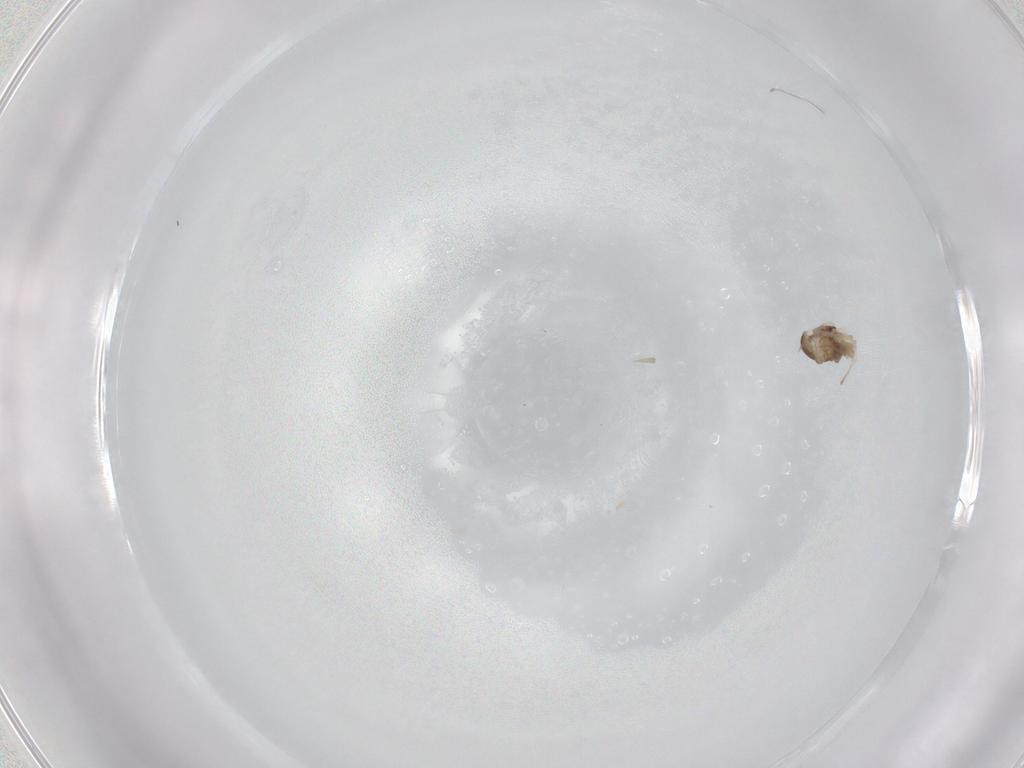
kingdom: Animalia
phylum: Arthropoda
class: Insecta
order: Diptera
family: Cecidomyiidae
